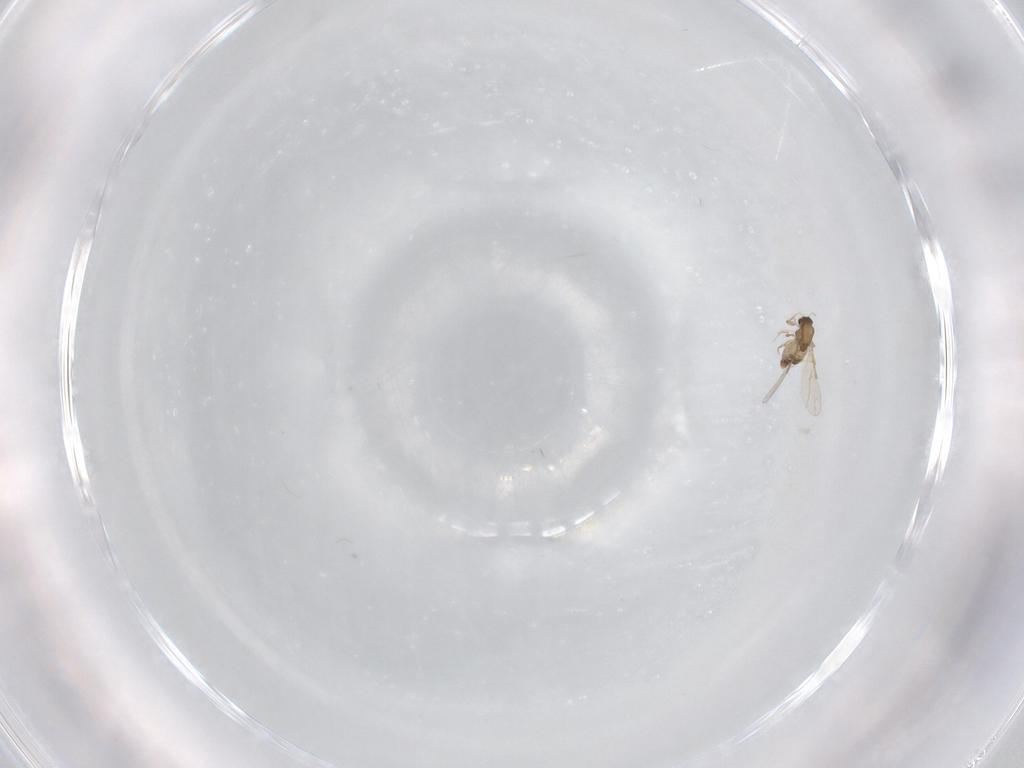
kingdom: Animalia
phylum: Arthropoda
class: Insecta
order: Diptera
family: Chironomidae
